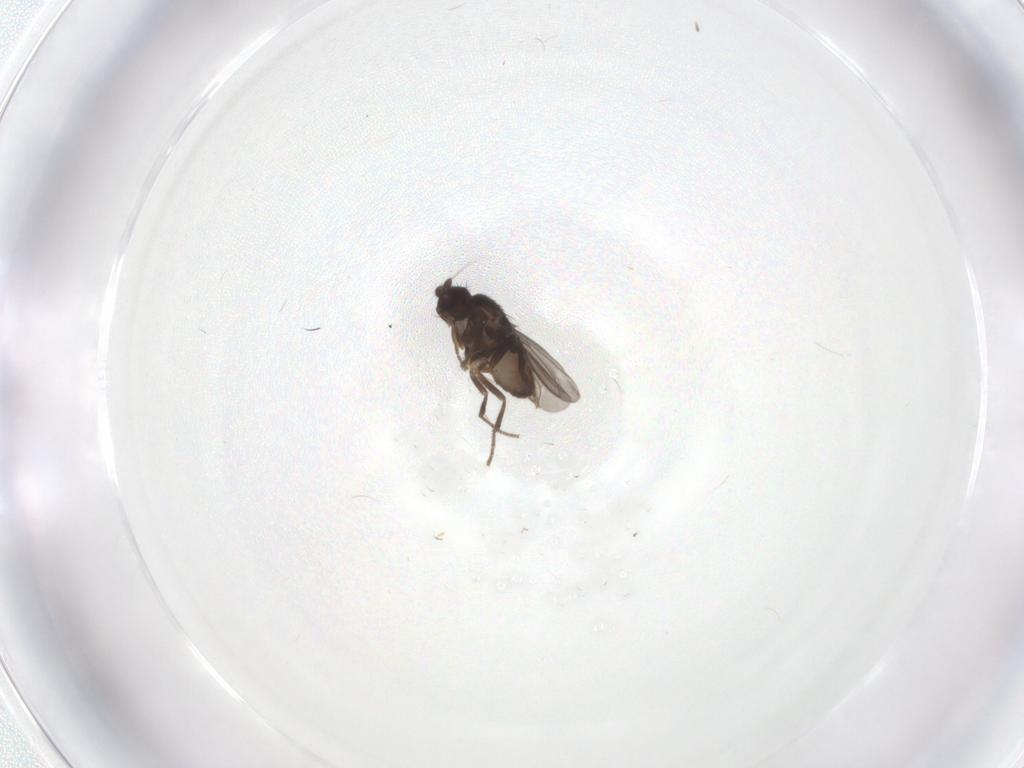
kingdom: Animalia
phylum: Arthropoda
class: Insecta
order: Diptera
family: Sphaeroceridae
